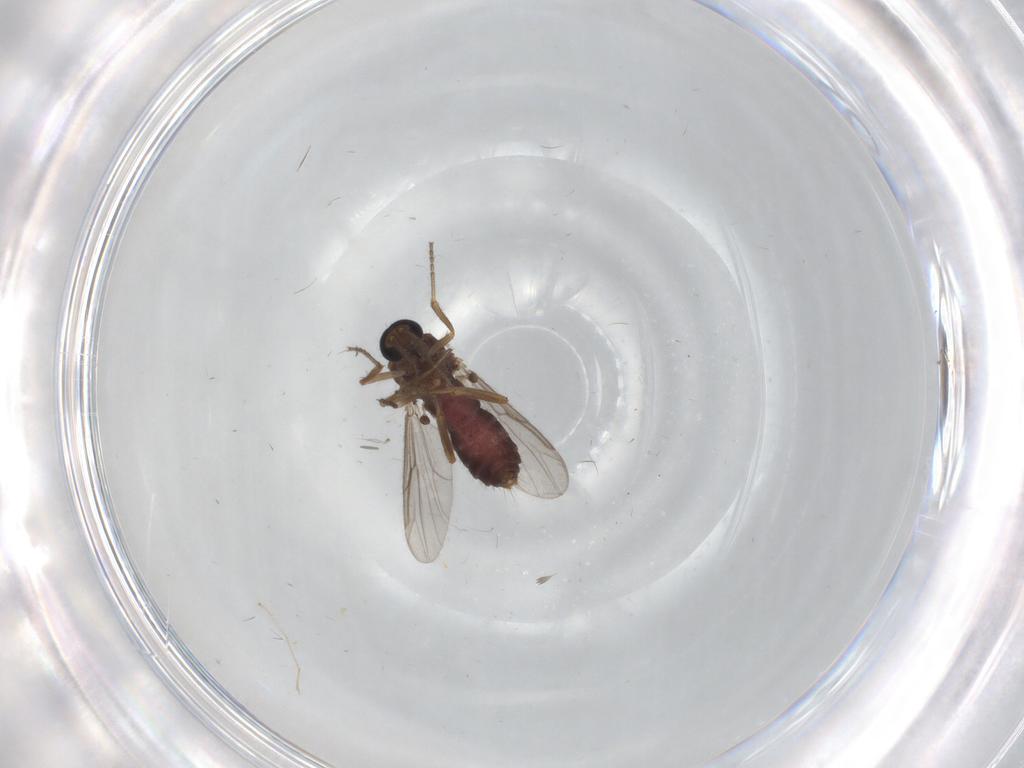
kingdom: Animalia
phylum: Arthropoda
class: Insecta
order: Diptera
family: Ceratopogonidae
